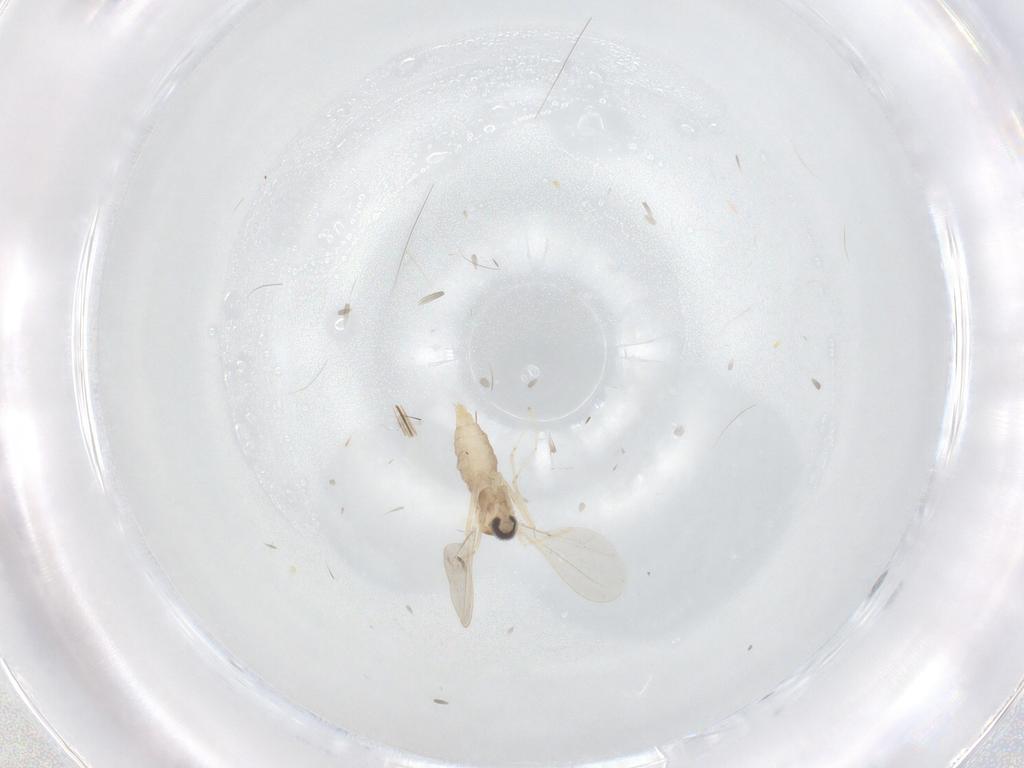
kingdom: Animalia
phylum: Arthropoda
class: Insecta
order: Diptera
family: Cecidomyiidae
